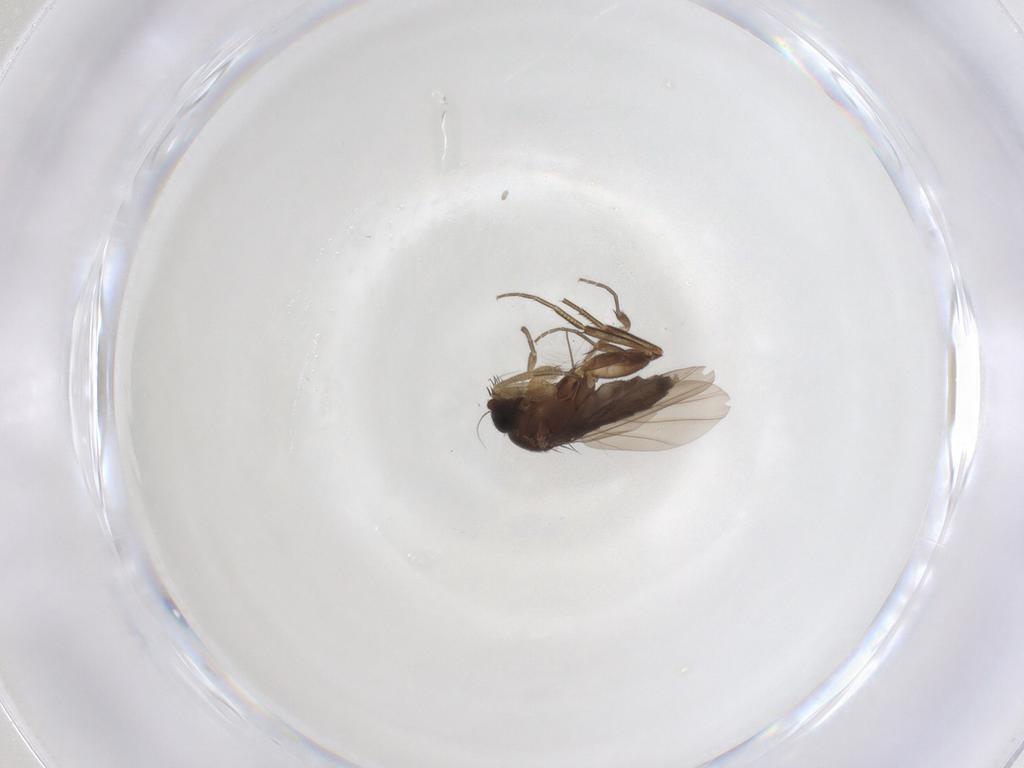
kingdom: Animalia
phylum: Arthropoda
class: Insecta
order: Diptera
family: Phoridae
